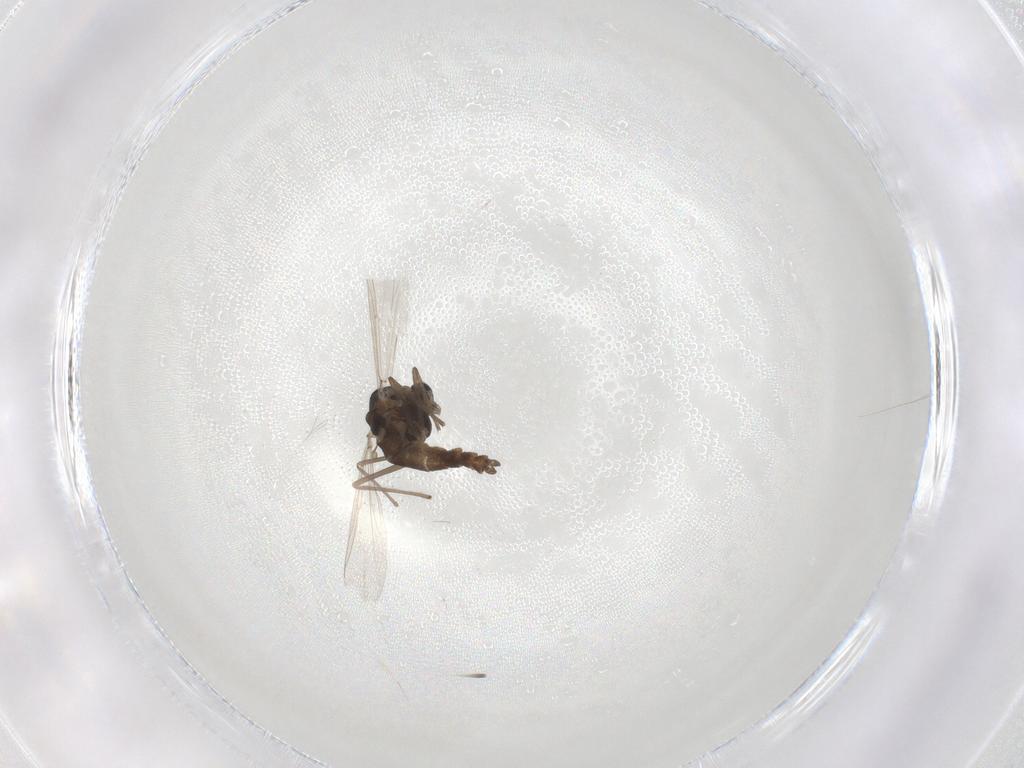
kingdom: Animalia
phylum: Arthropoda
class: Insecta
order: Diptera
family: Chironomidae
